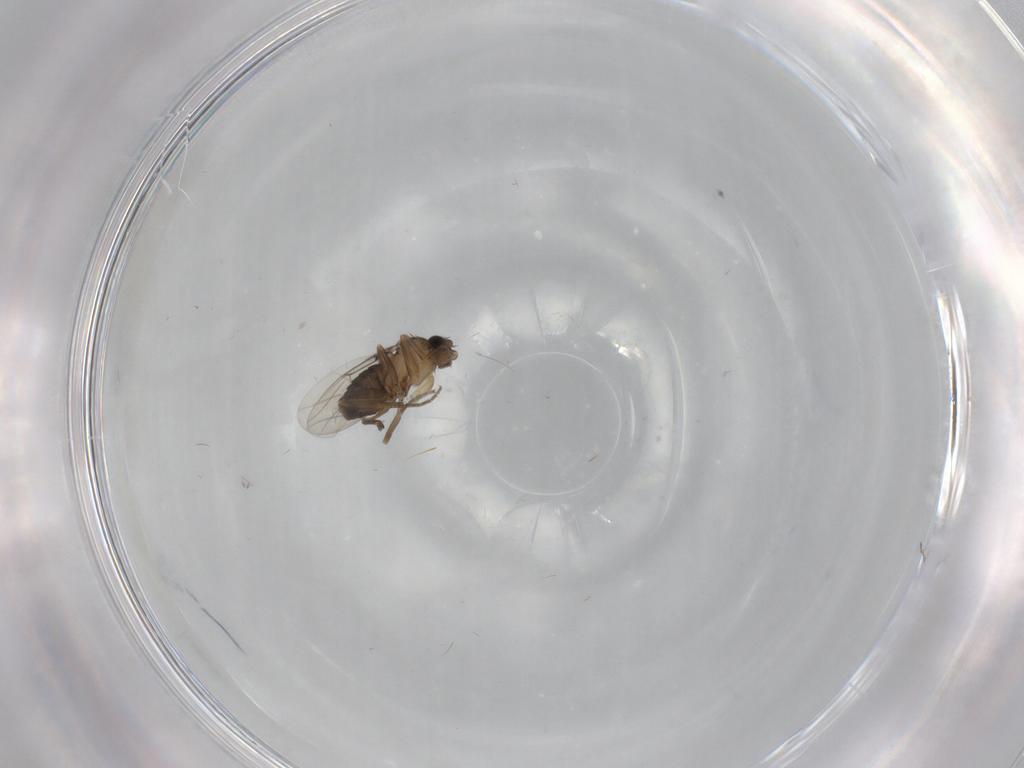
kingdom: Animalia
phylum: Arthropoda
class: Insecta
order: Diptera
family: Phoridae
